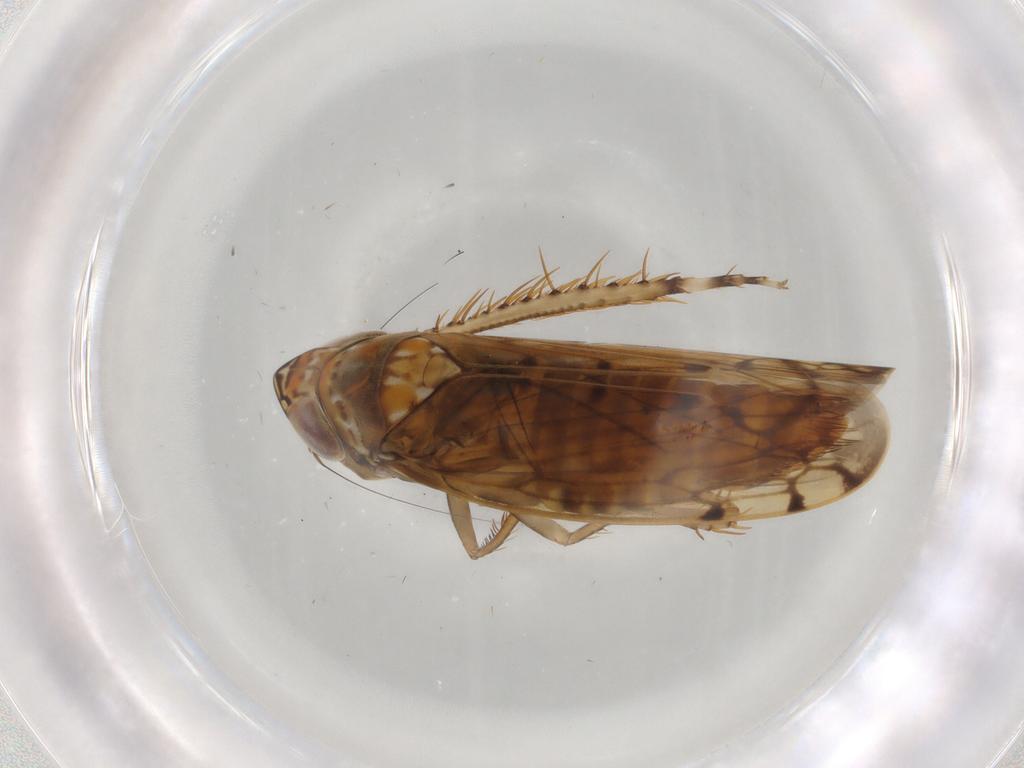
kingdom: Animalia
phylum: Arthropoda
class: Insecta
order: Hemiptera
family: Cicadellidae
